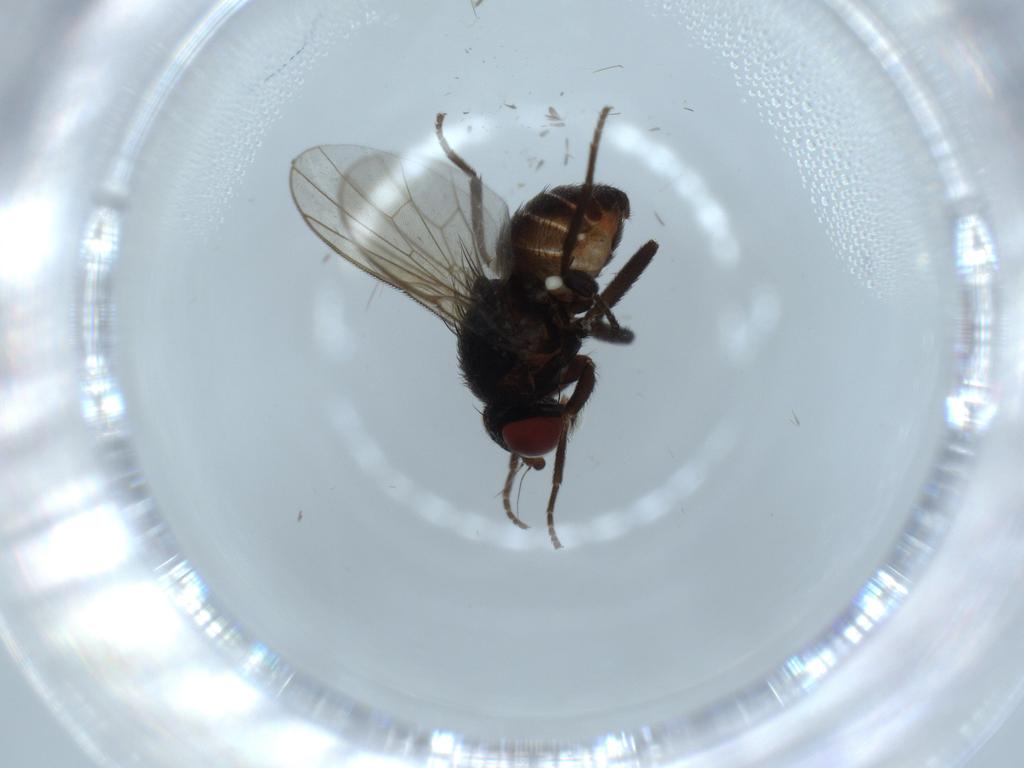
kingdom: Animalia
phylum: Arthropoda
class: Insecta
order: Diptera
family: Agromyzidae
